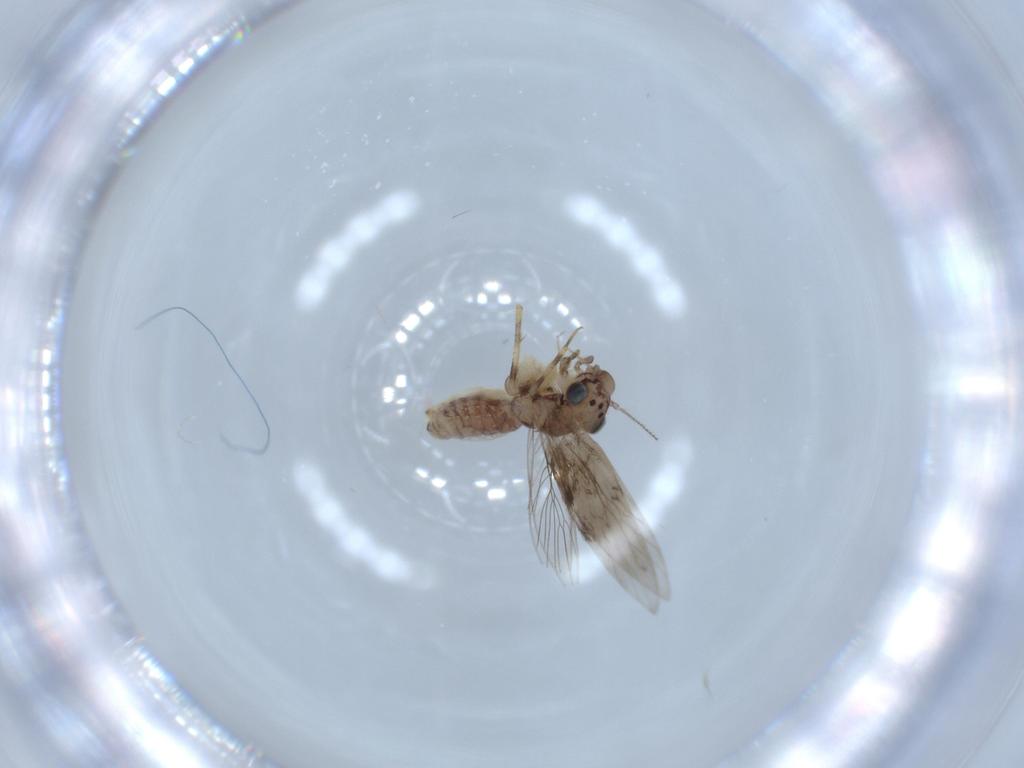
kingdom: Animalia
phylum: Arthropoda
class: Insecta
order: Psocodea
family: Lepidopsocidae
